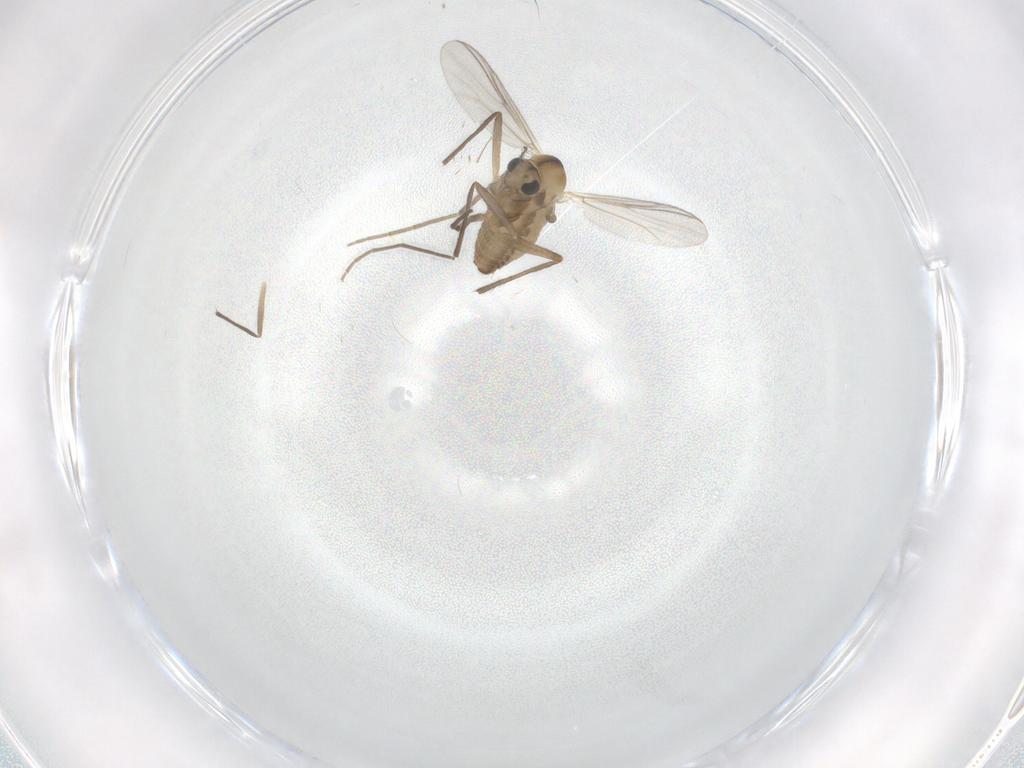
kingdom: Animalia
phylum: Arthropoda
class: Insecta
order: Diptera
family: Chironomidae
